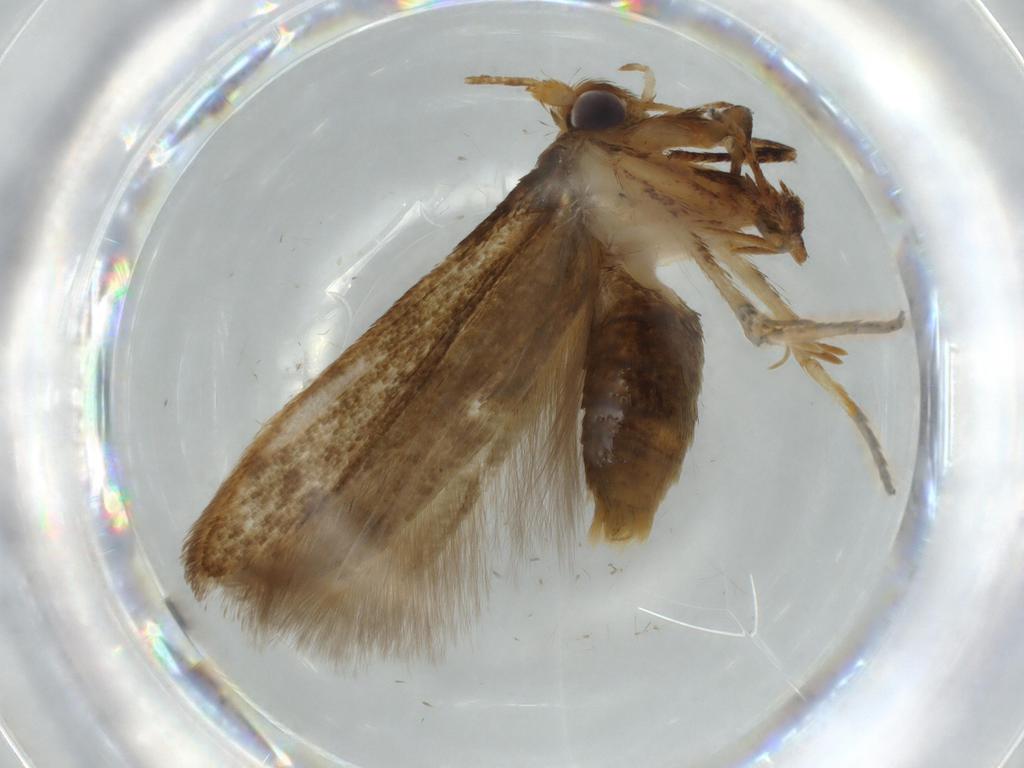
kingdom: Animalia
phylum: Arthropoda
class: Insecta
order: Lepidoptera
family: Coleophoridae
